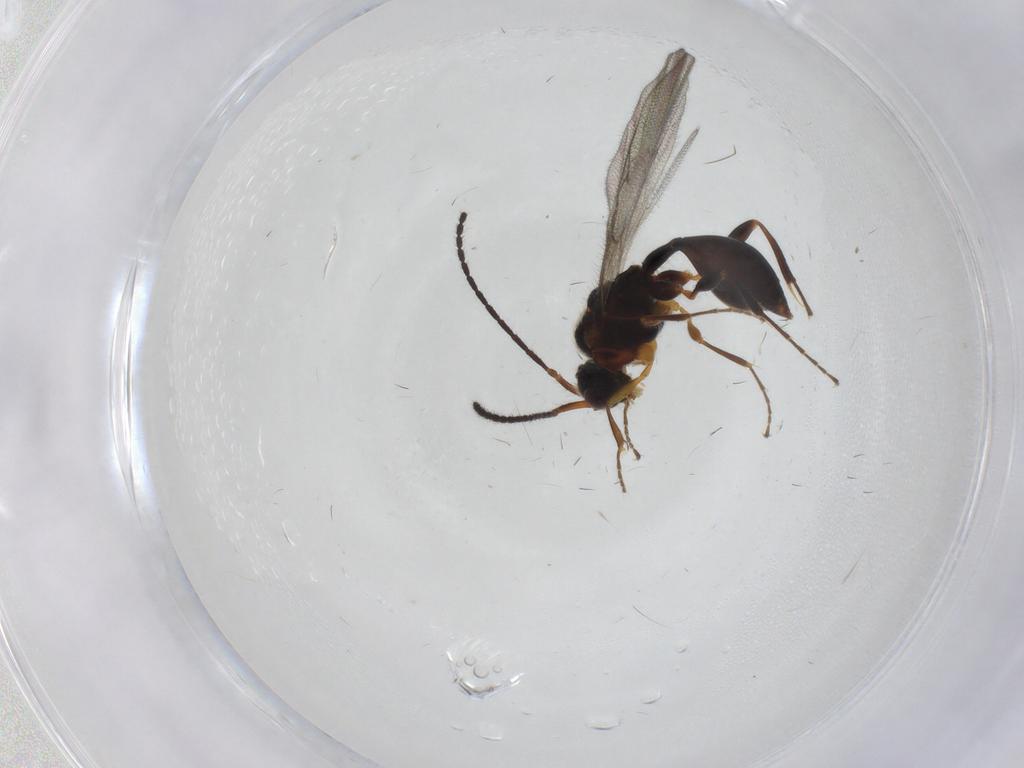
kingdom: Animalia
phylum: Arthropoda
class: Insecta
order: Hymenoptera
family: Diapriidae
